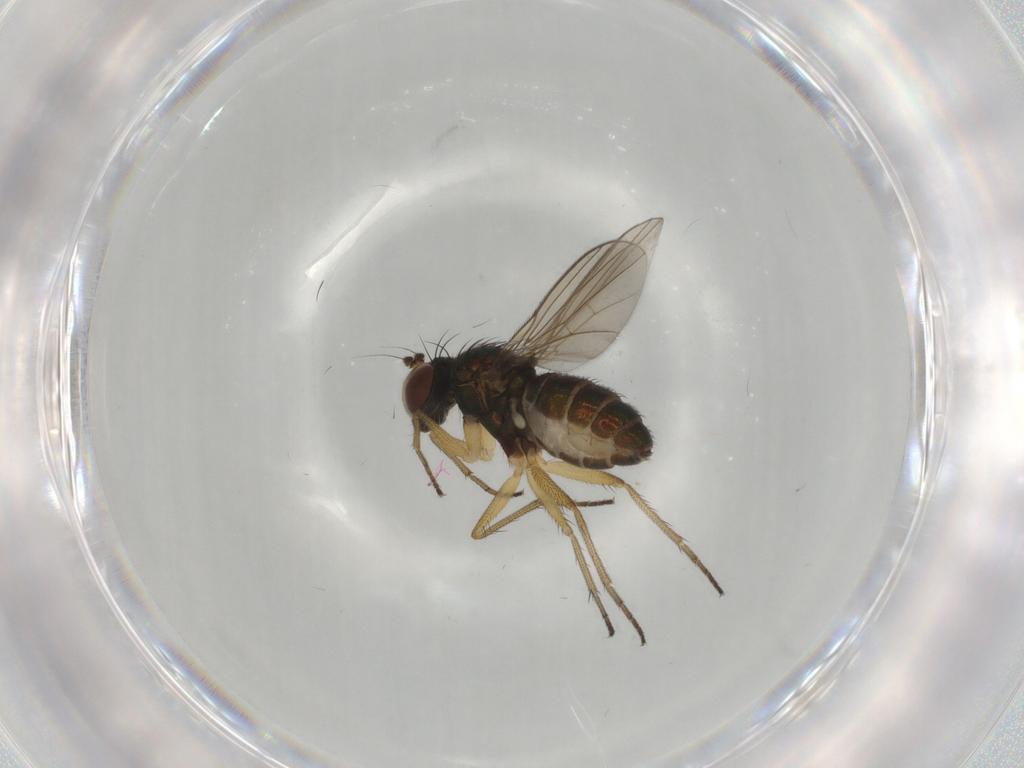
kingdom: Animalia
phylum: Arthropoda
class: Insecta
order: Diptera
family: Dolichopodidae
